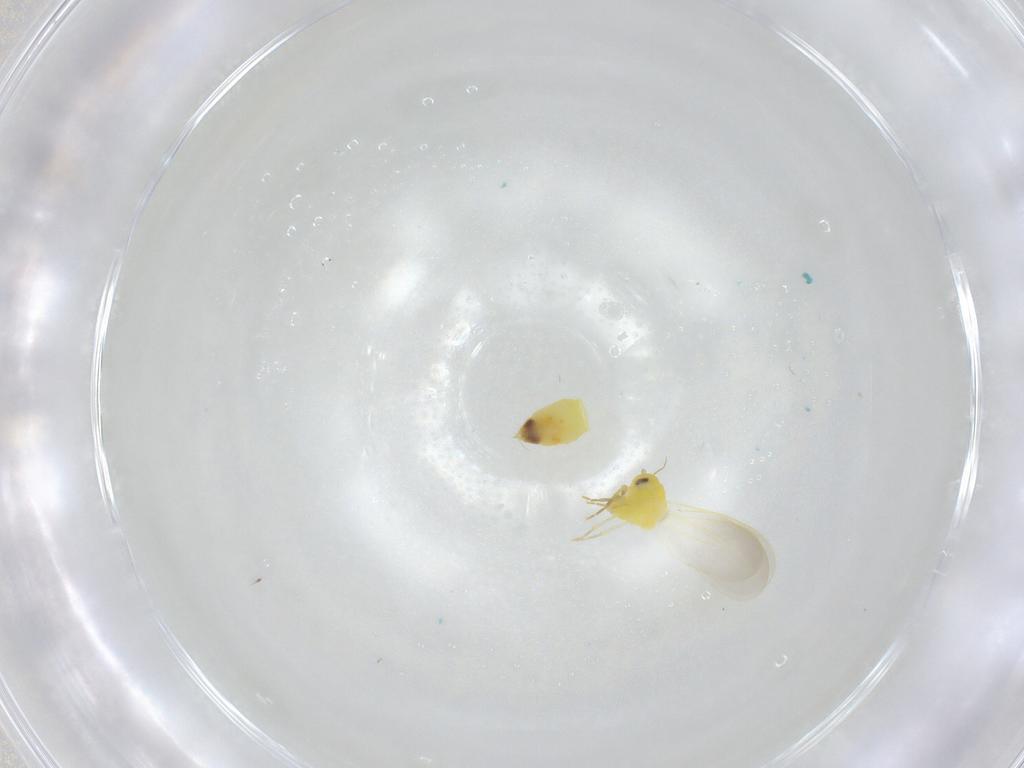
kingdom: Animalia
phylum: Arthropoda
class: Insecta
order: Hemiptera
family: Aleyrodidae
